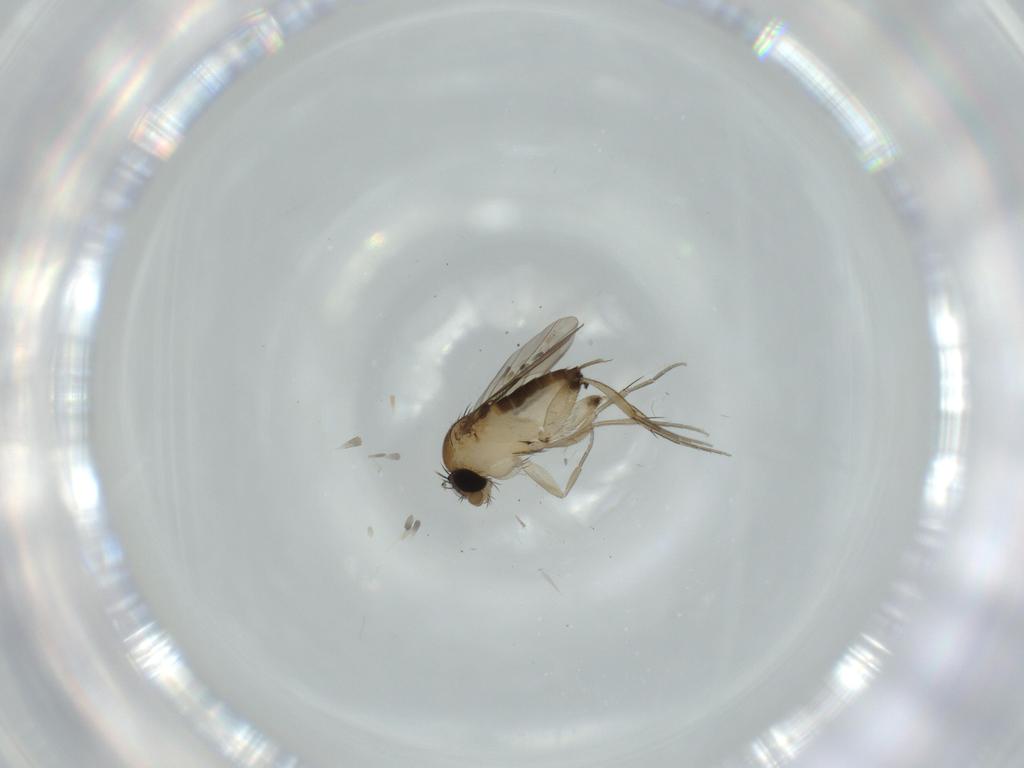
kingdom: Animalia
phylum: Arthropoda
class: Insecta
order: Diptera
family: Phoridae
